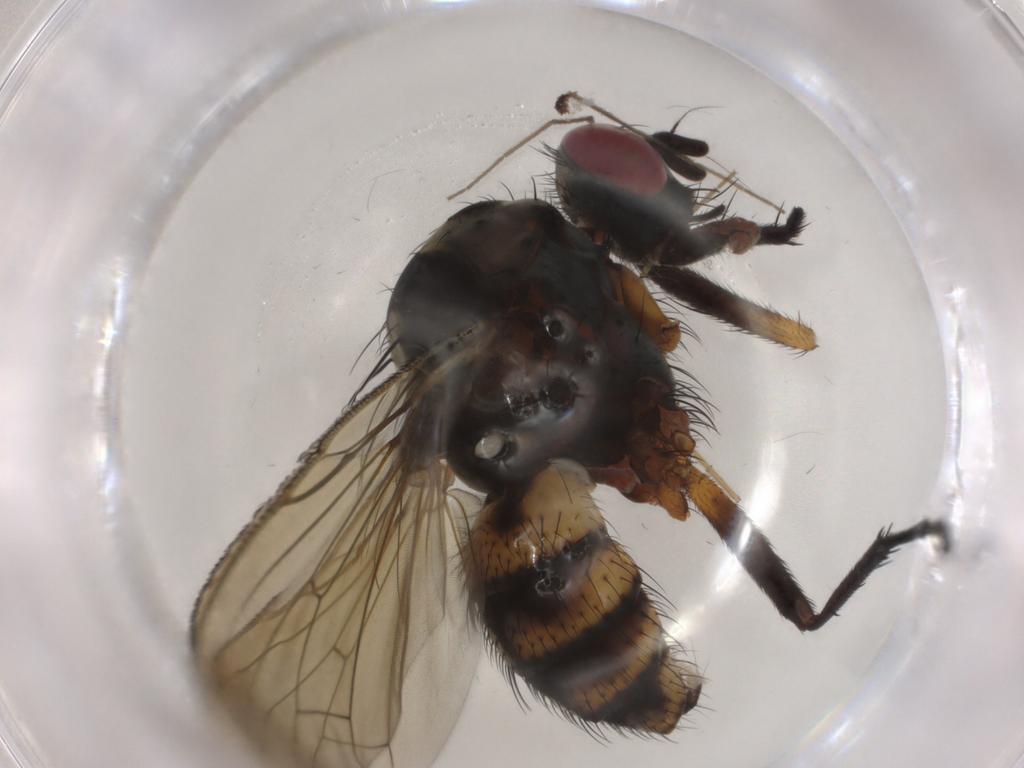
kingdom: Animalia
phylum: Arthropoda
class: Insecta
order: Diptera
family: Anthomyiidae
